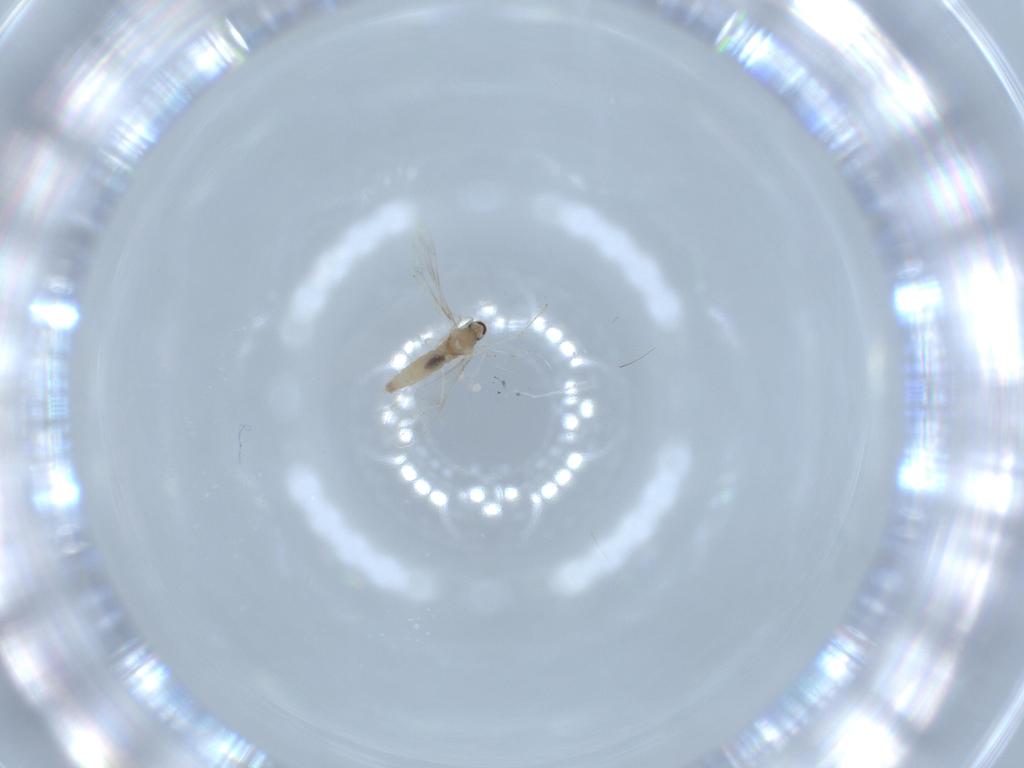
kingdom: Animalia
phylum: Arthropoda
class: Insecta
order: Diptera
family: Cecidomyiidae
